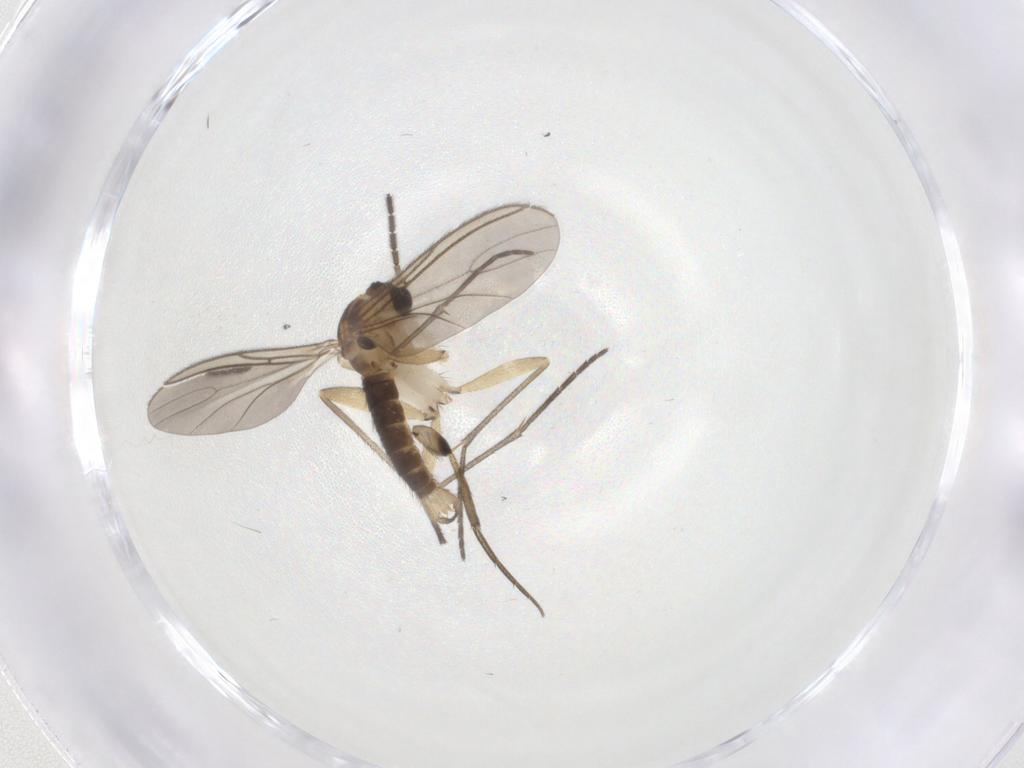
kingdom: Animalia
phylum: Arthropoda
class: Insecta
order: Diptera
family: Sciaridae
